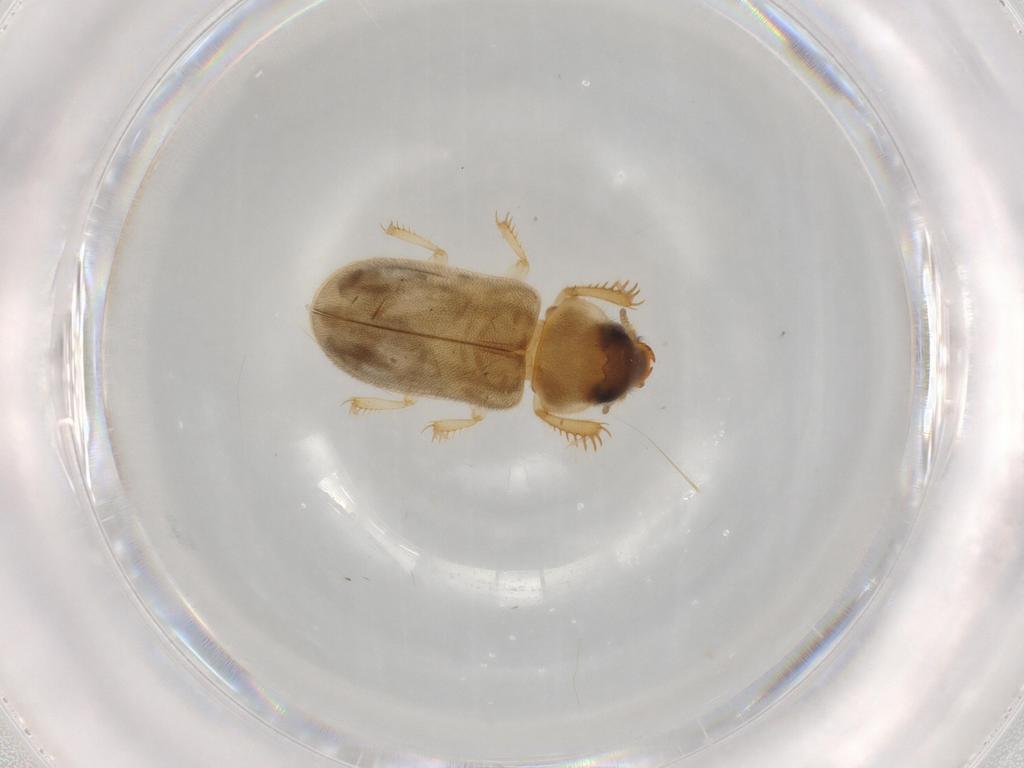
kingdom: Animalia
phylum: Arthropoda
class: Insecta
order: Coleoptera
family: Heteroceridae
